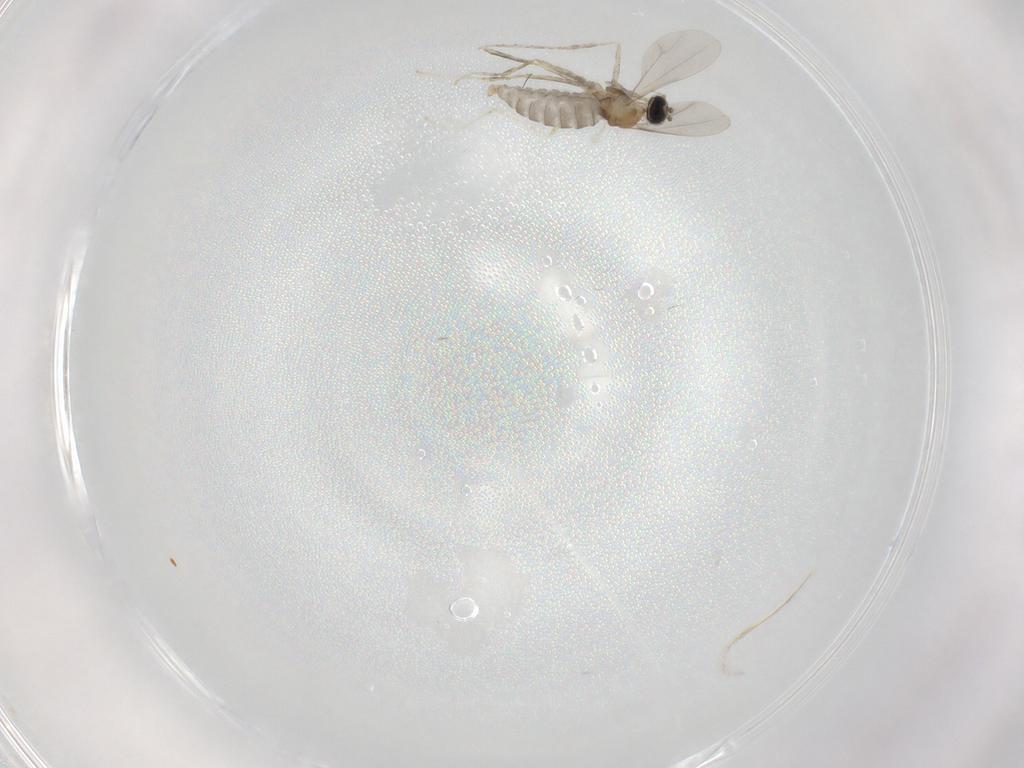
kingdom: Animalia
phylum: Arthropoda
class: Insecta
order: Diptera
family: Cecidomyiidae
